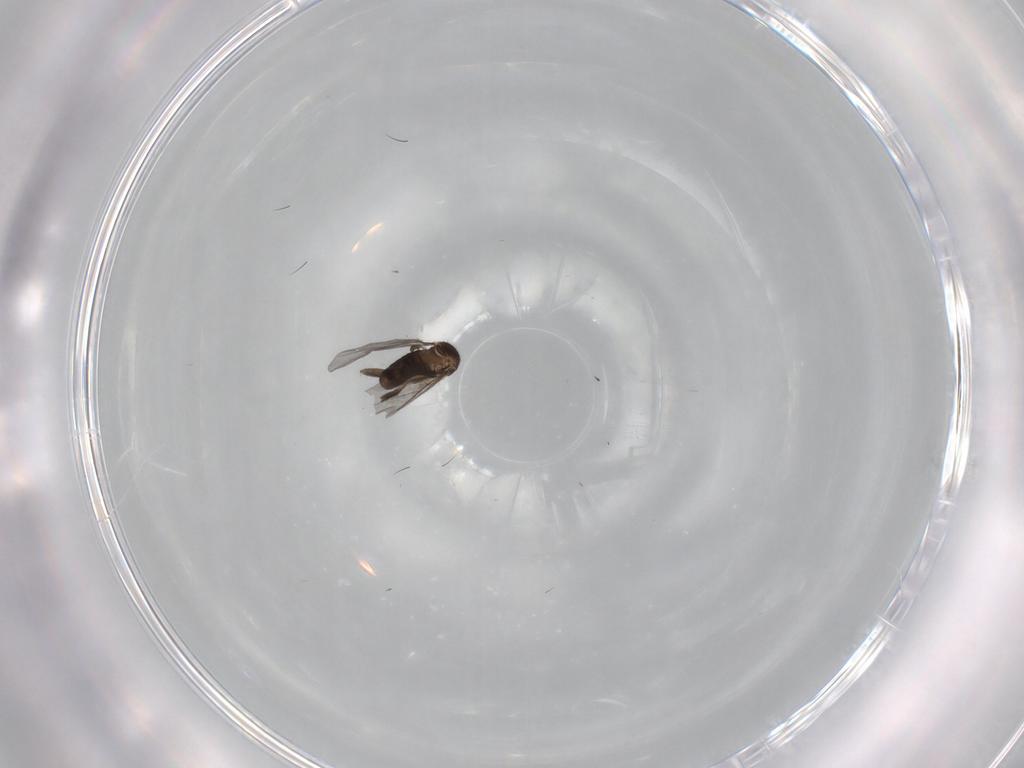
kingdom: Animalia
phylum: Arthropoda
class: Insecta
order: Diptera
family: Phoridae
